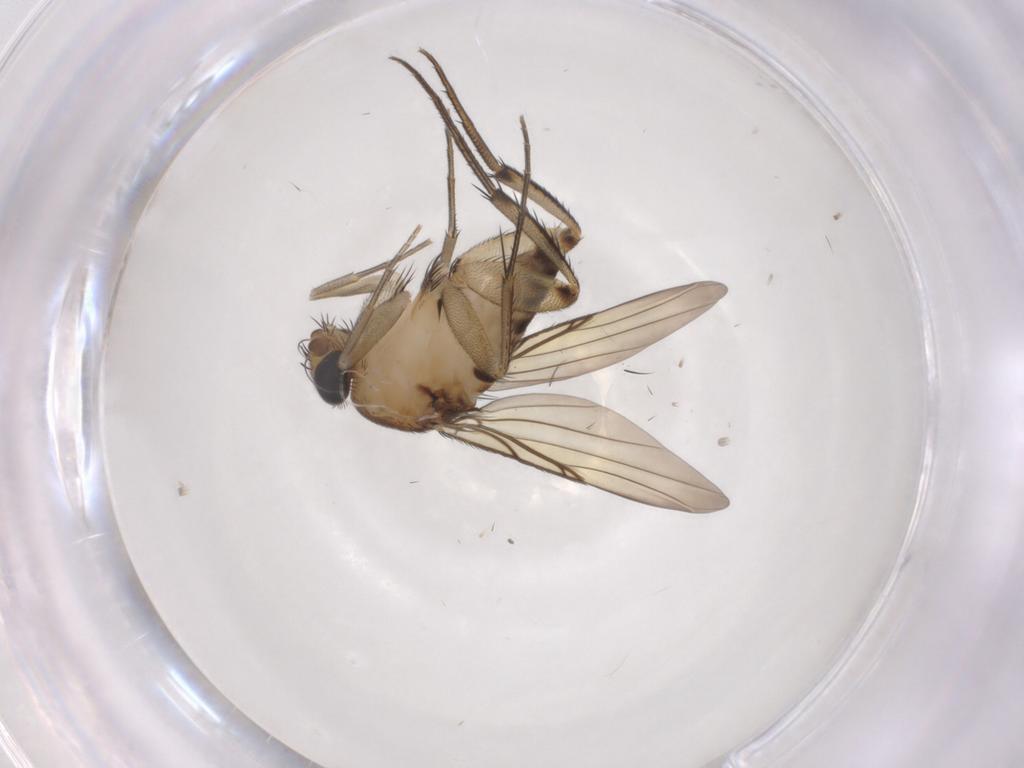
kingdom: Animalia
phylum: Arthropoda
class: Insecta
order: Diptera
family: Phoridae
